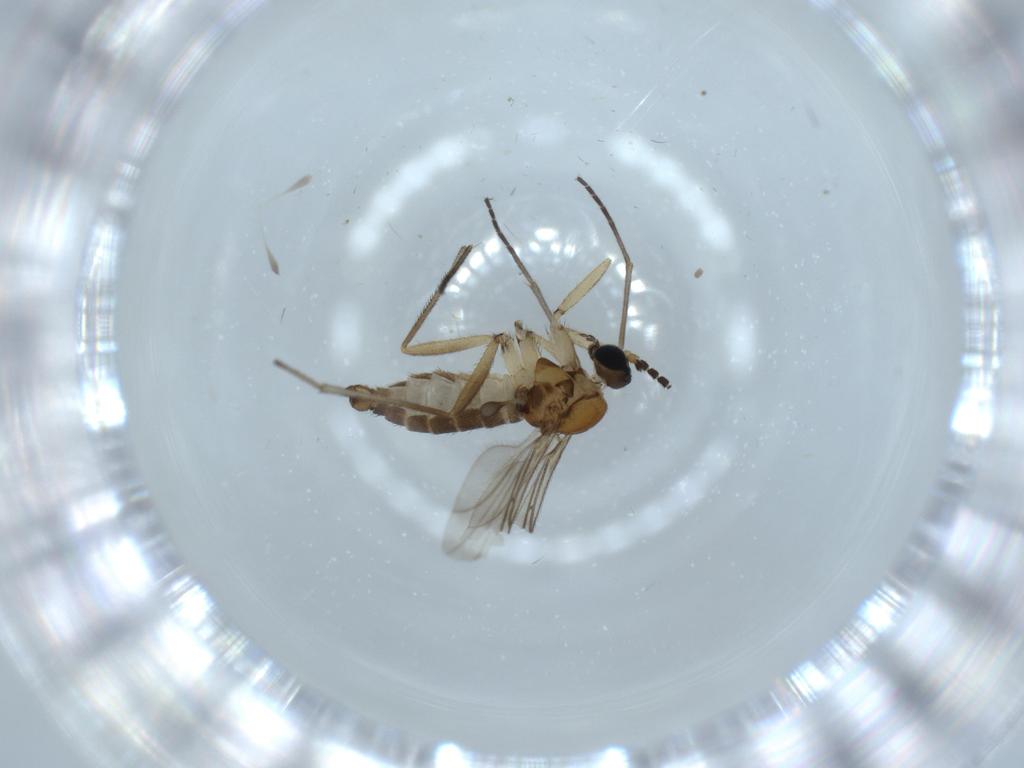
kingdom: Animalia
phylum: Arthropoda
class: Insecta
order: Diptera
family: Sciaridae
